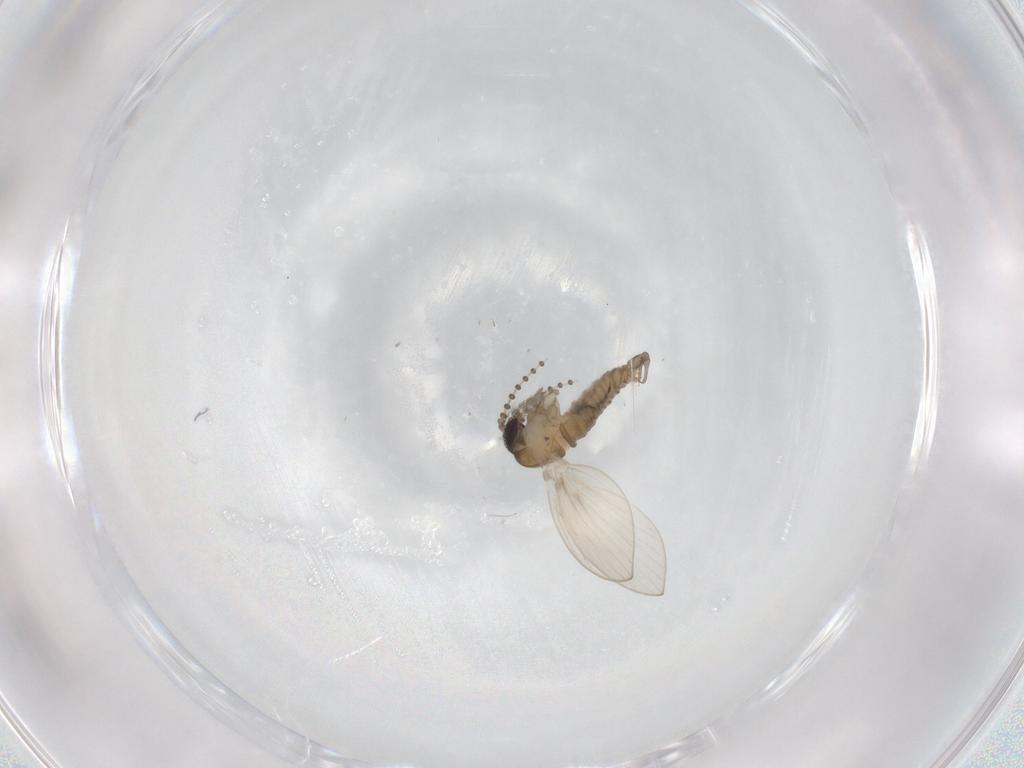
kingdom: Animalia
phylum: Arthropoda
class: Insecta
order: Diptera
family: Psychodidae
